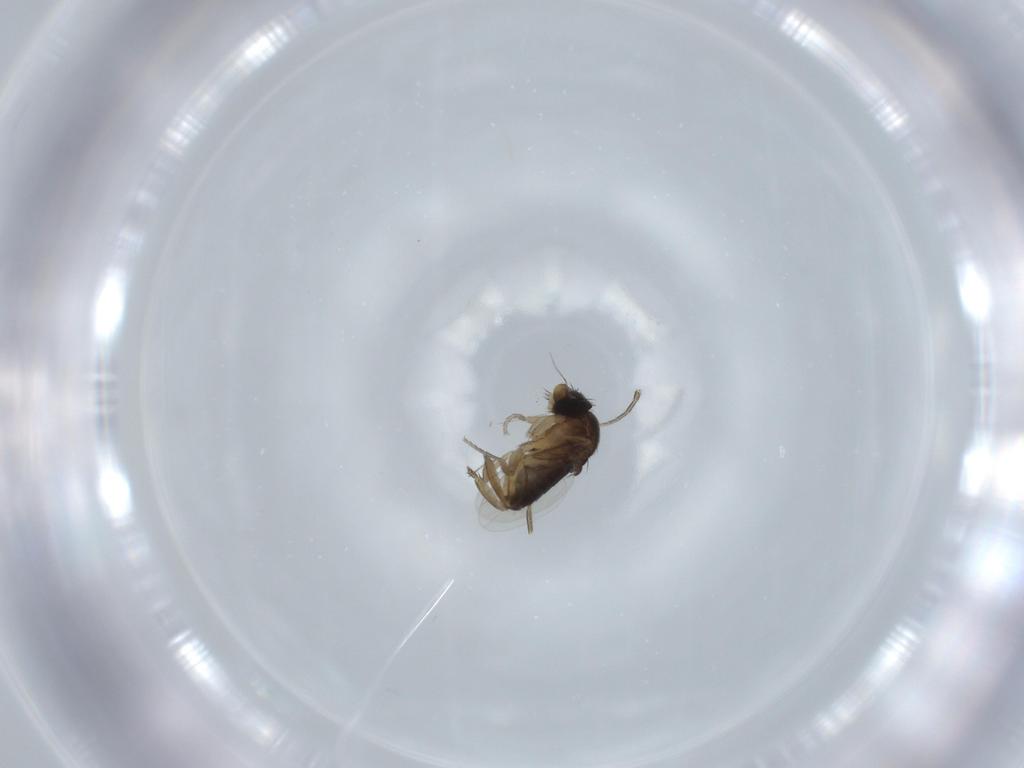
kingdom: Animalia
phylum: Arthropoda
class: Insecta
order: Diptera
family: Phoridae
